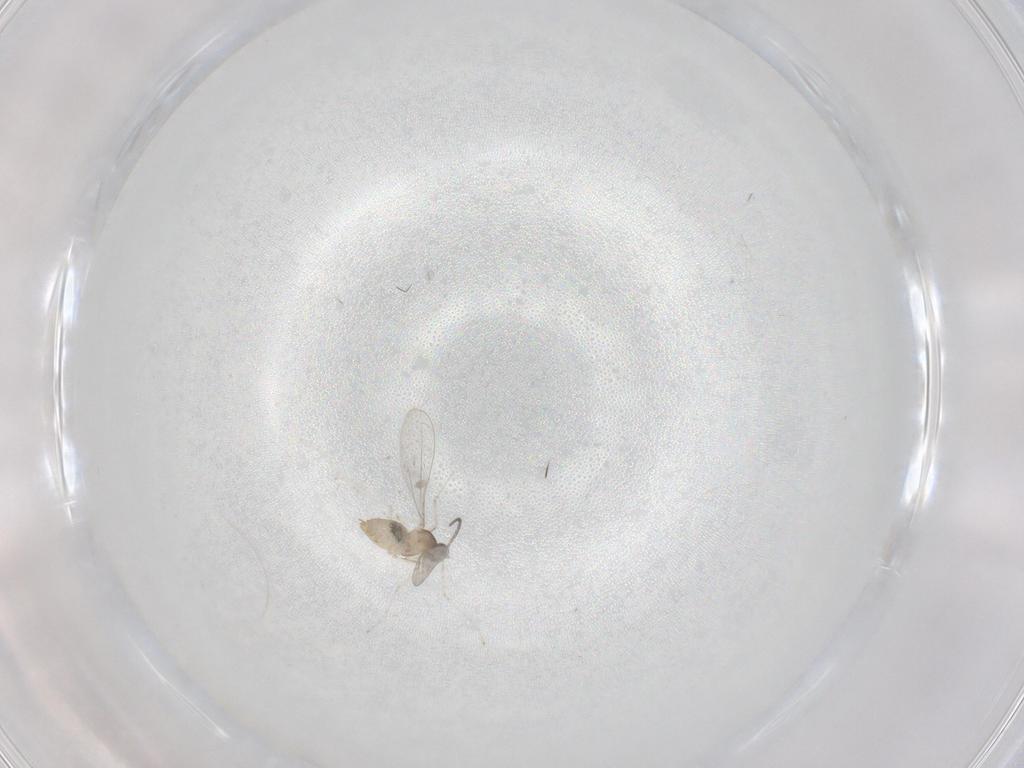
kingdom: Animalia
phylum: Arthropoda
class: Insecta
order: Diptera
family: Cecidomyiidae
